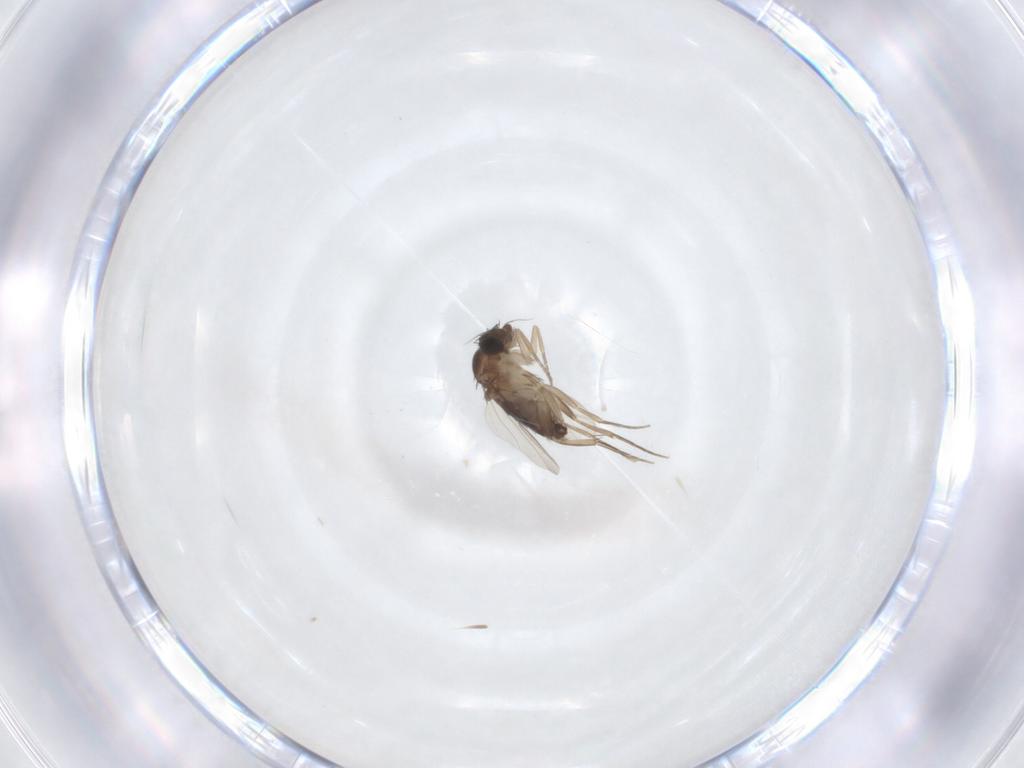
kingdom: Animalia
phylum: Arthropoda
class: Insecta
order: Diptera
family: Phoridae
